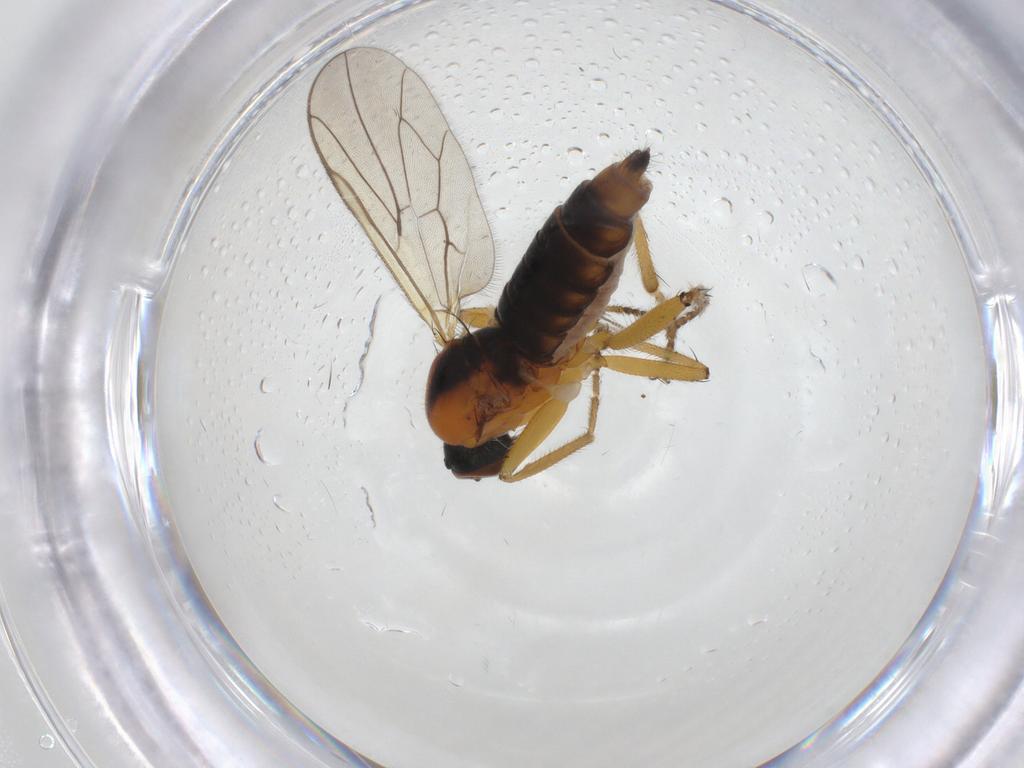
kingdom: Animalia
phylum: Arthropoda
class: Insecta
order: Diptera
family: Hybotidae
